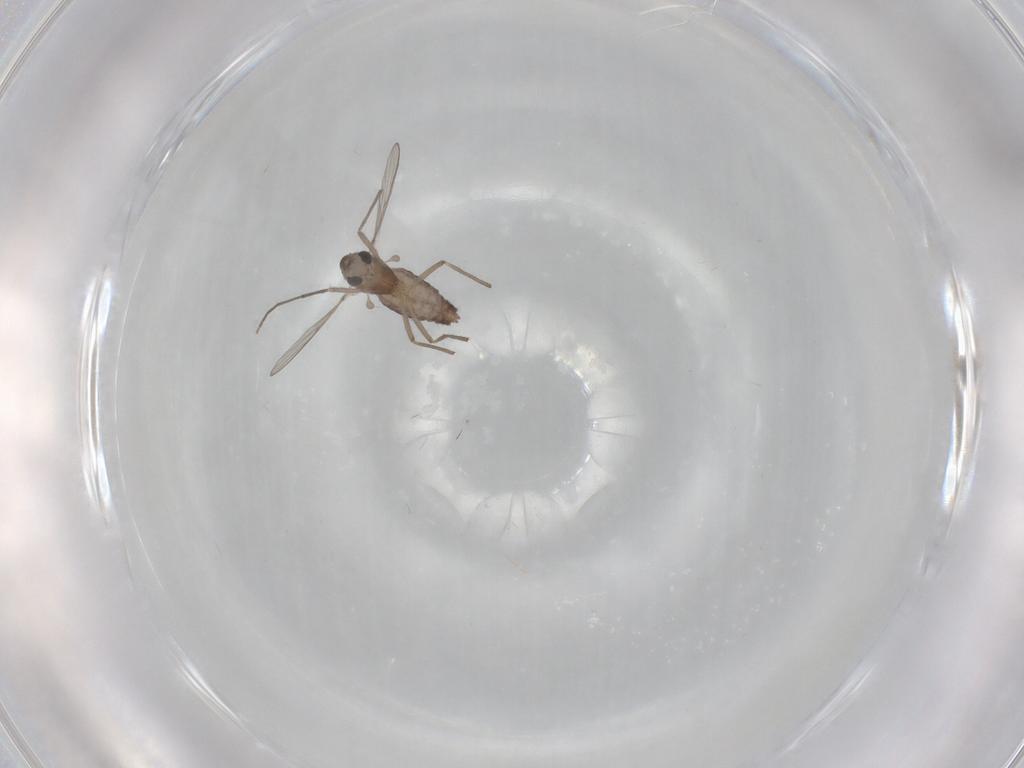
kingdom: Animalia
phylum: Arthropoda
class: Insecta
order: Diptera
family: Chironomidae
